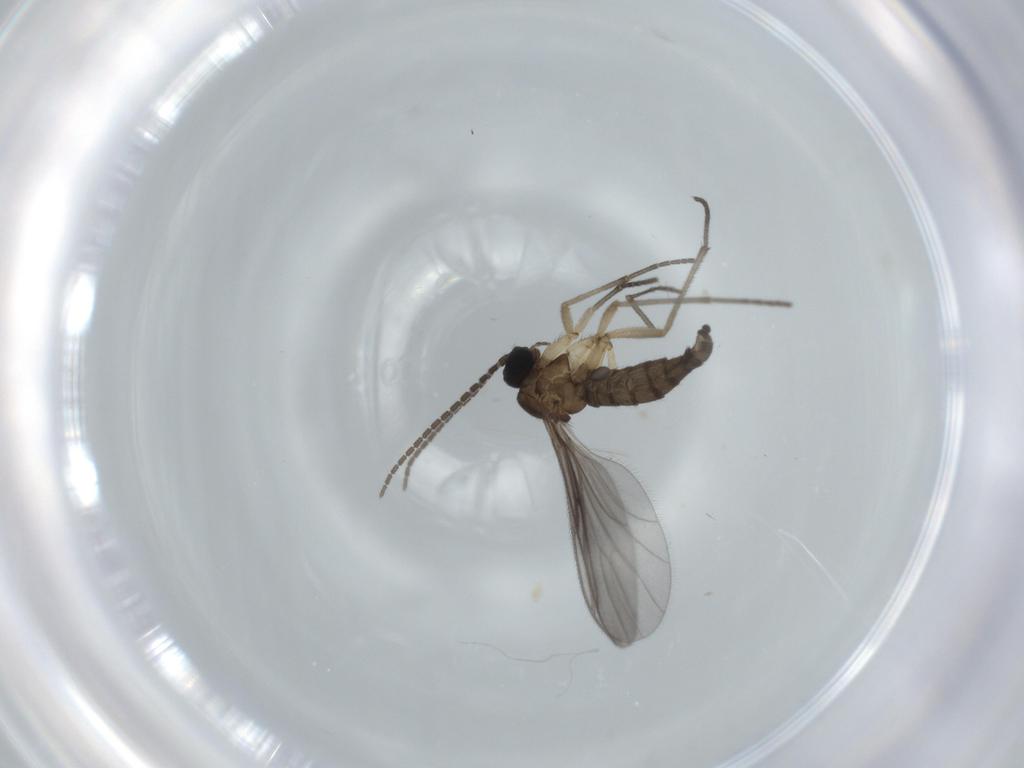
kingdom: Animalia
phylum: Arthropoda
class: Insecta
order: Diptera
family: Sciaridae
